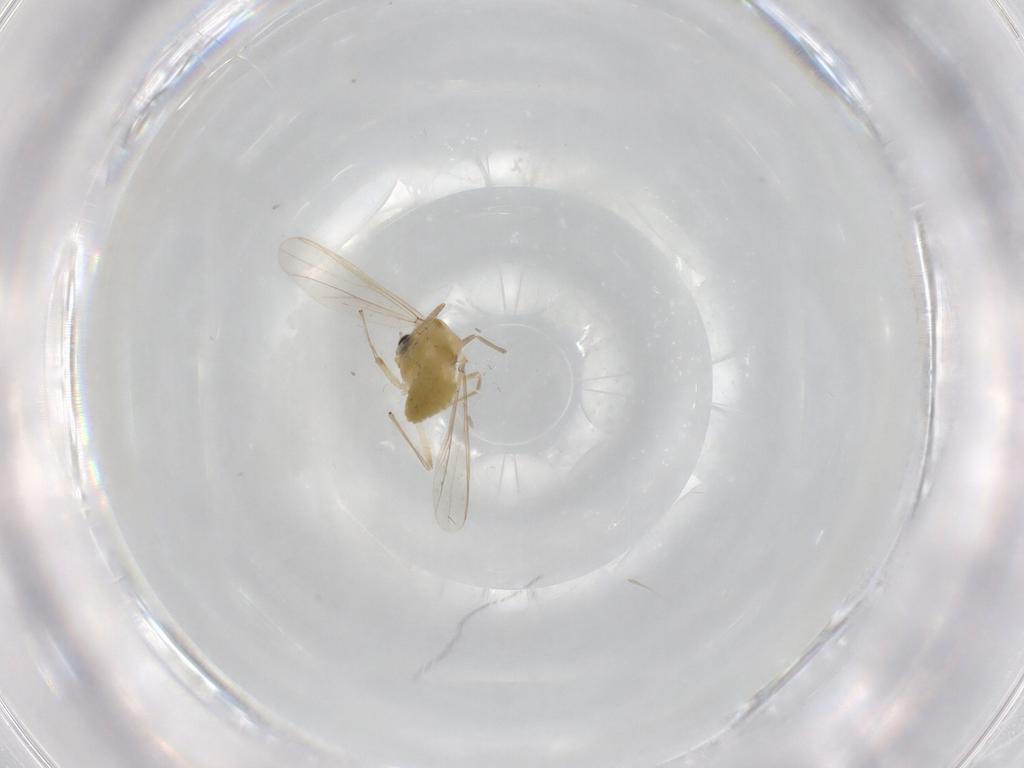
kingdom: Animalia
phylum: Arthropoda
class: Insecta
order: Diptera
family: Chironomidae
